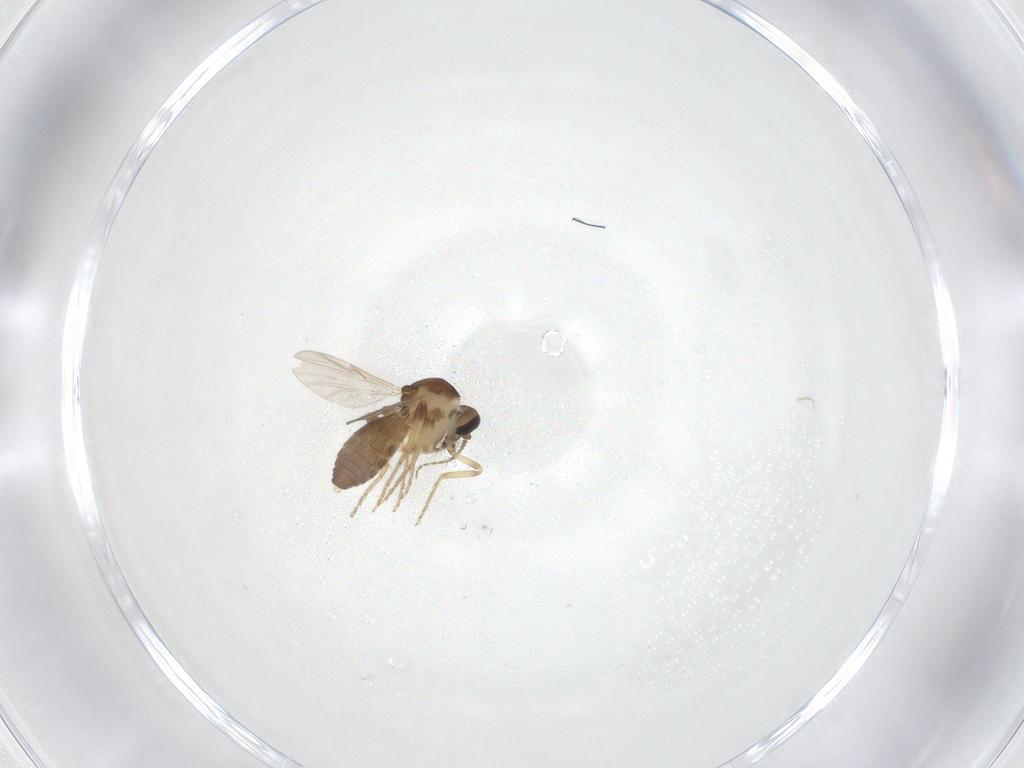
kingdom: Animalia
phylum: Arthropoda
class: Insecta
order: Diptera
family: Ceratopogonidae
